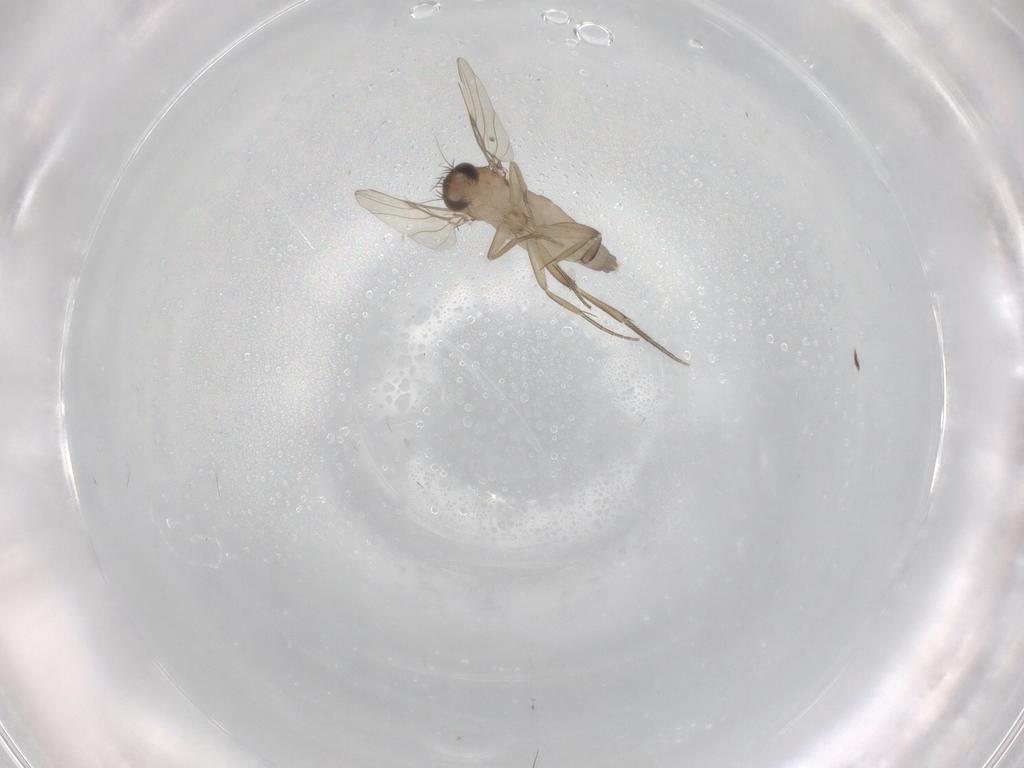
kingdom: Animalia
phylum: Arthropoda
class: Insecta
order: Diptera
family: Phoridae
